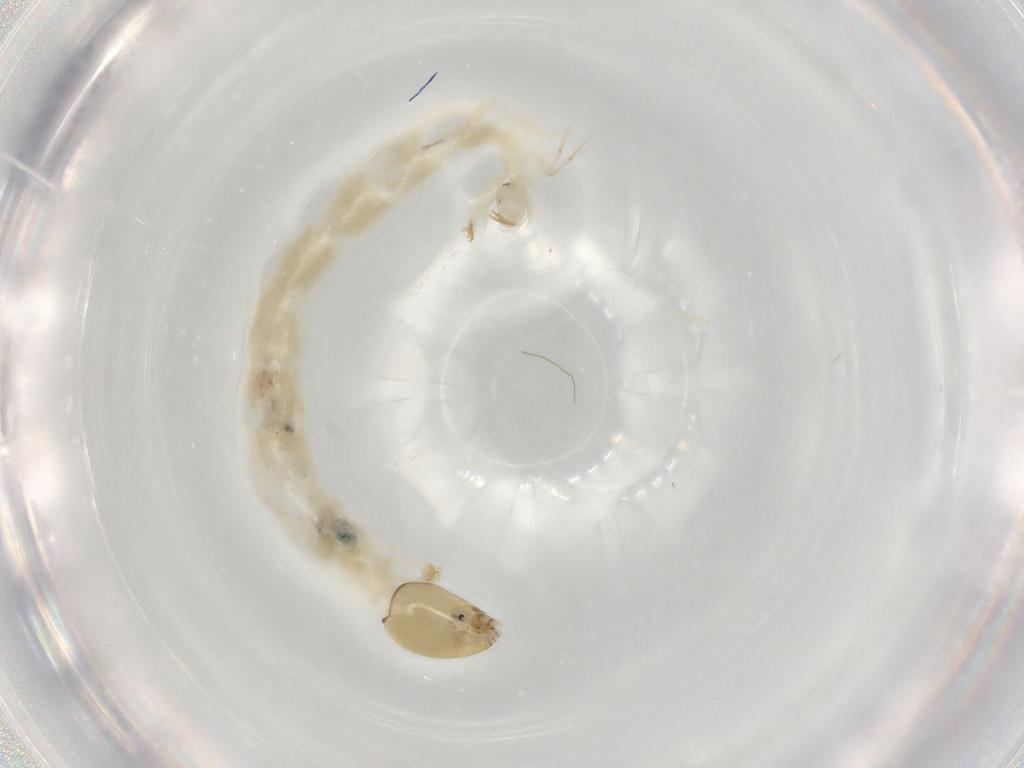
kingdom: Animalia
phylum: Arthropoda
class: Insecta
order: Diptera
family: Chironomidae
